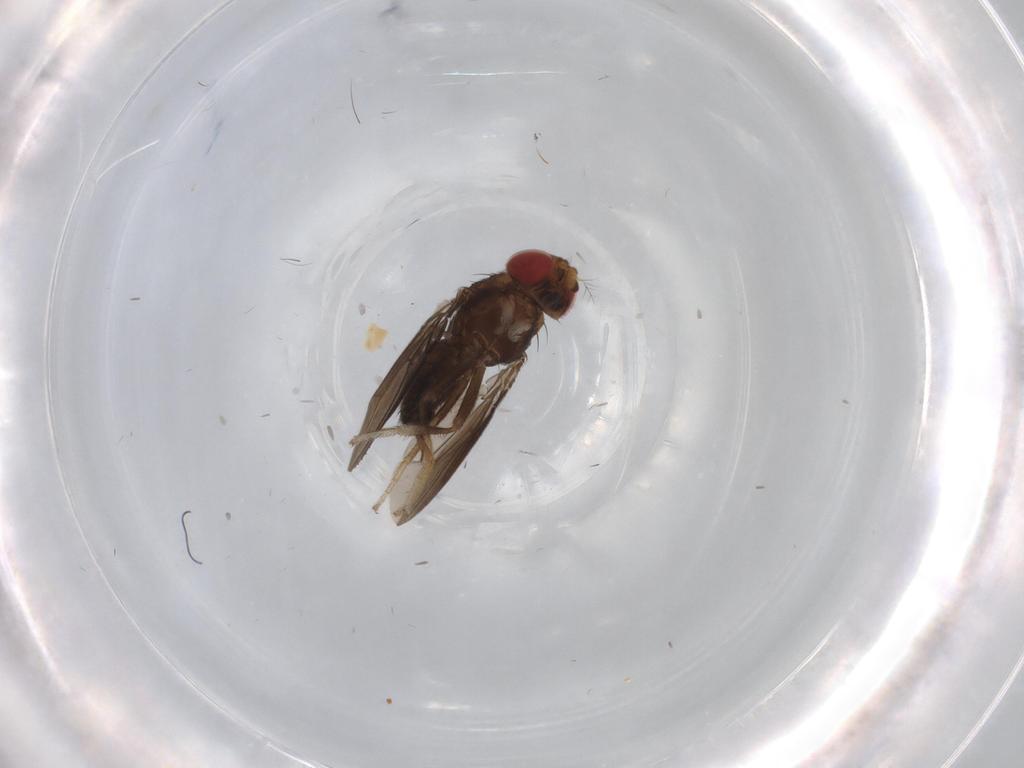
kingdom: Animalia
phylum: Arthropoda
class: Insecta
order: Diptera
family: Drosophilidae
